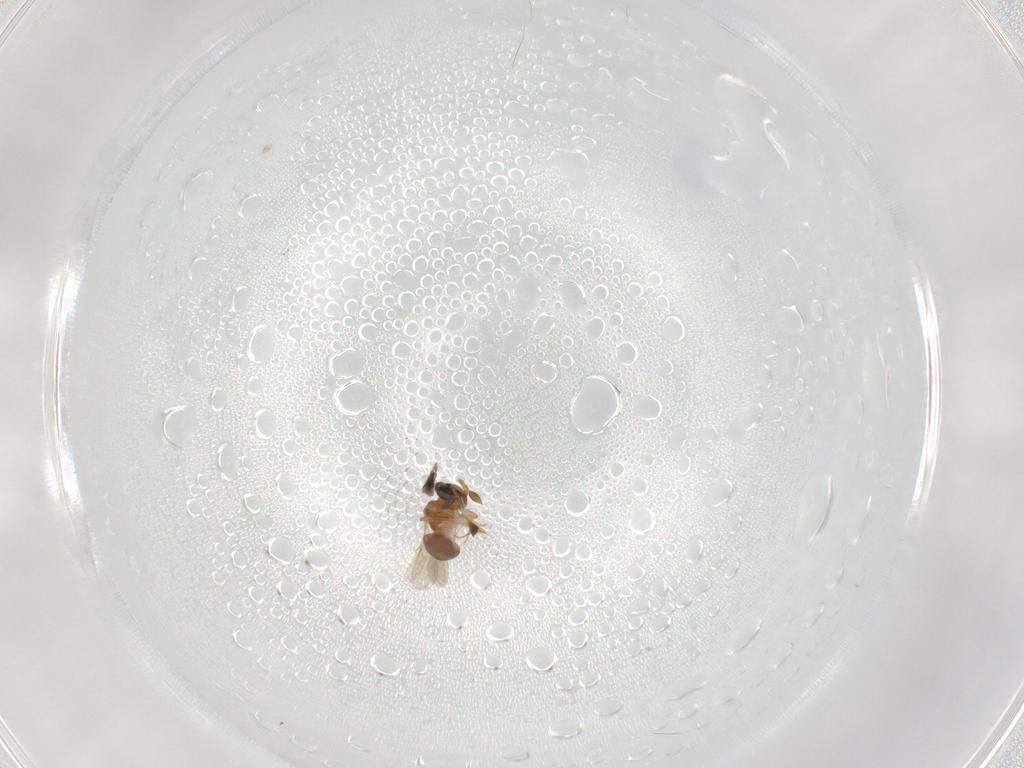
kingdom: Animalia
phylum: Arthropoda
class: Insecta
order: Hymenoptera
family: Scelionidae
